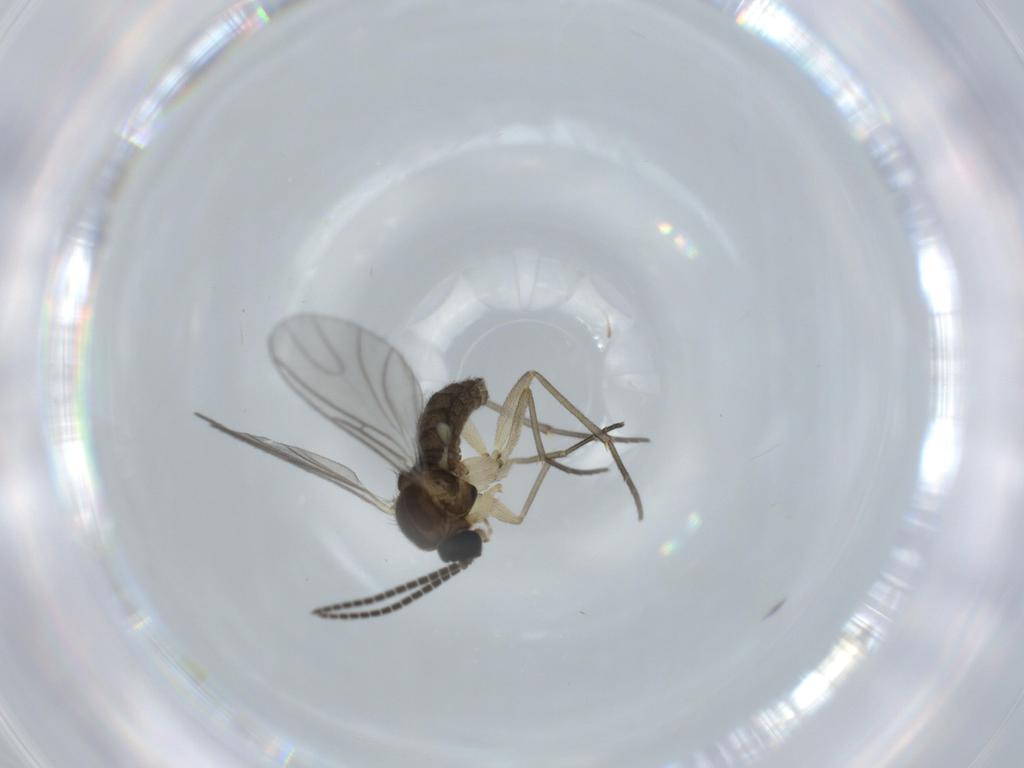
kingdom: Animalia
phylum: Arthropoda
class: Insecta
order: Diptera
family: Sciaridae
